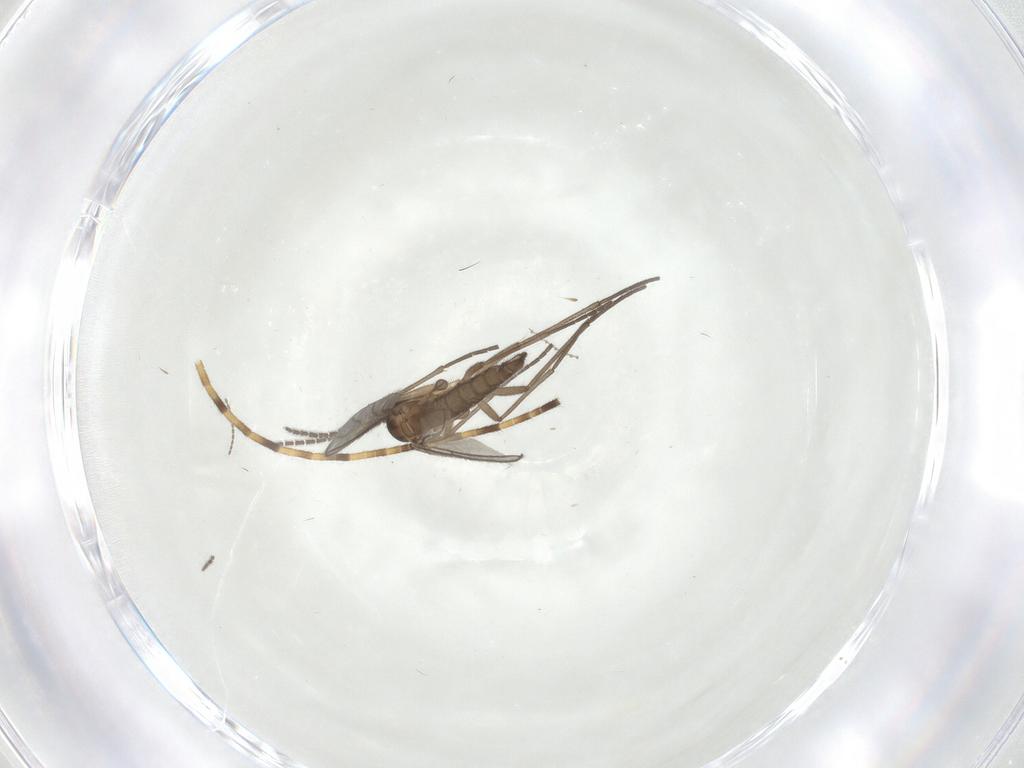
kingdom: Animalia
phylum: Arthropoda
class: Insecta
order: Diptera
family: Sciaridae
